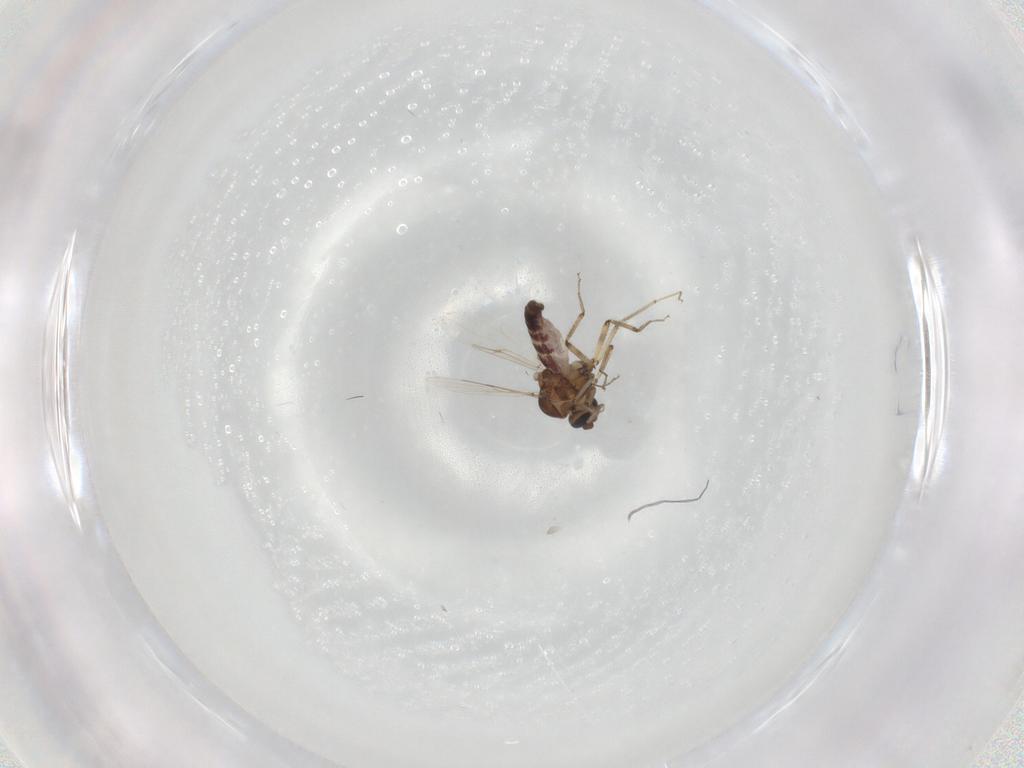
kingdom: Animalia
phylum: Arthropoda
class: Insecta
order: Diptera
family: Ceratopogonidae
